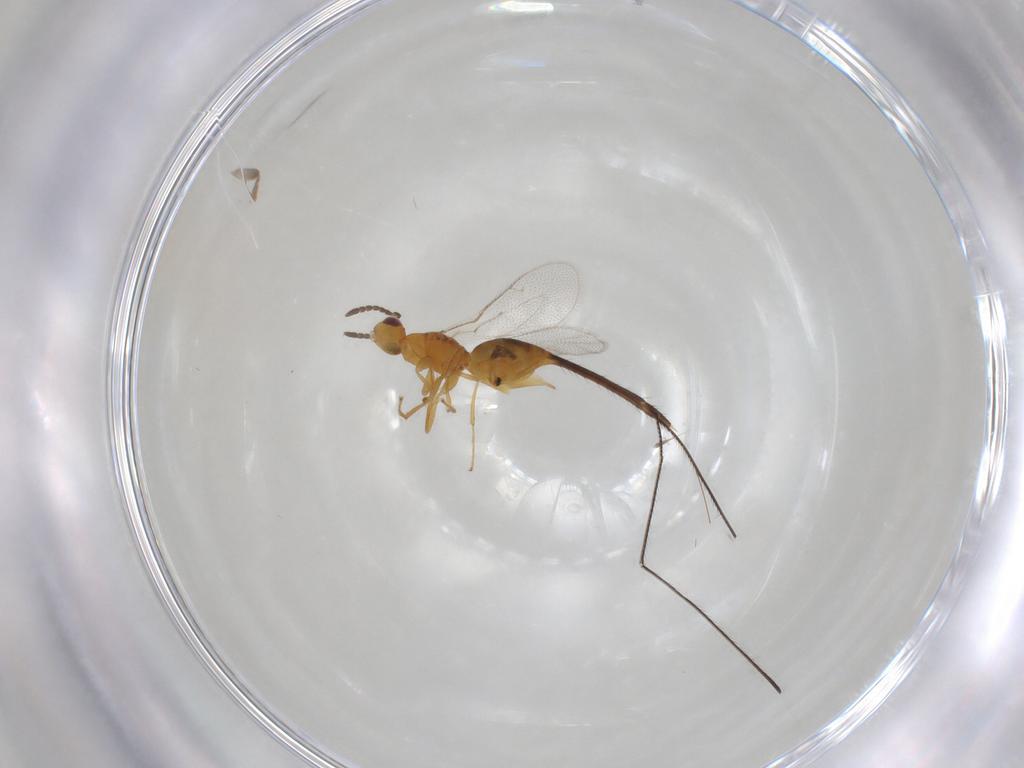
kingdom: Animalia
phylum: Arthropoda
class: Insecta
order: Hymenoptera
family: Pteromalidae
